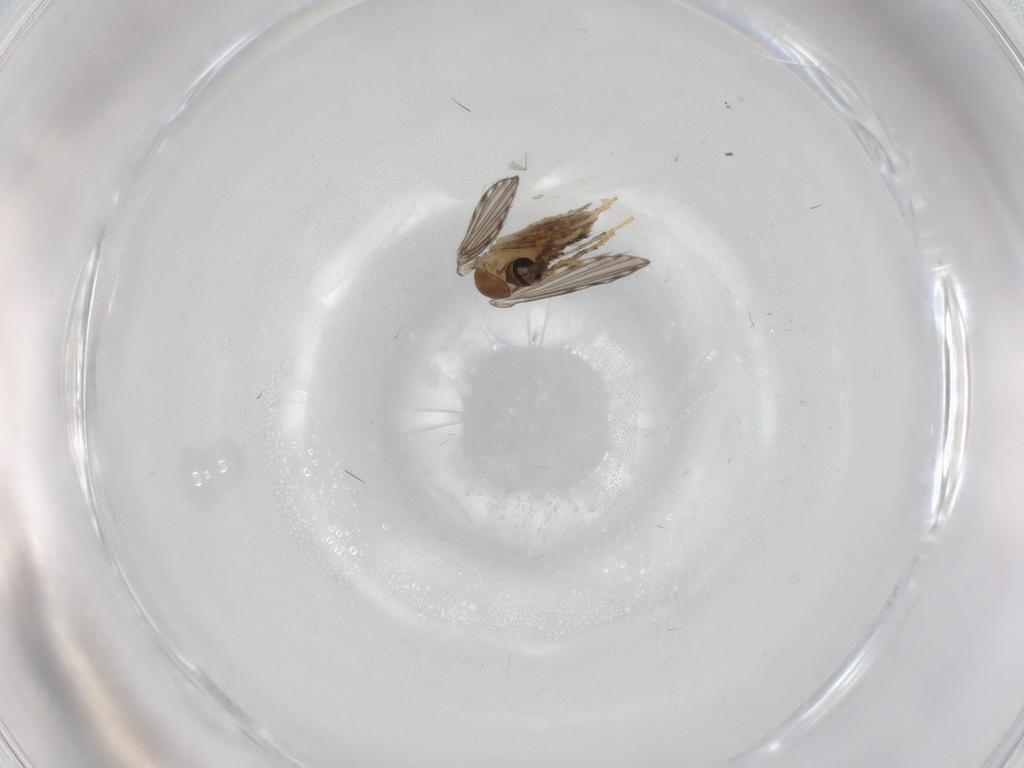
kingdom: Animalia
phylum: Arthropoda
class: Insecta
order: Diptera
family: Psychodidae
